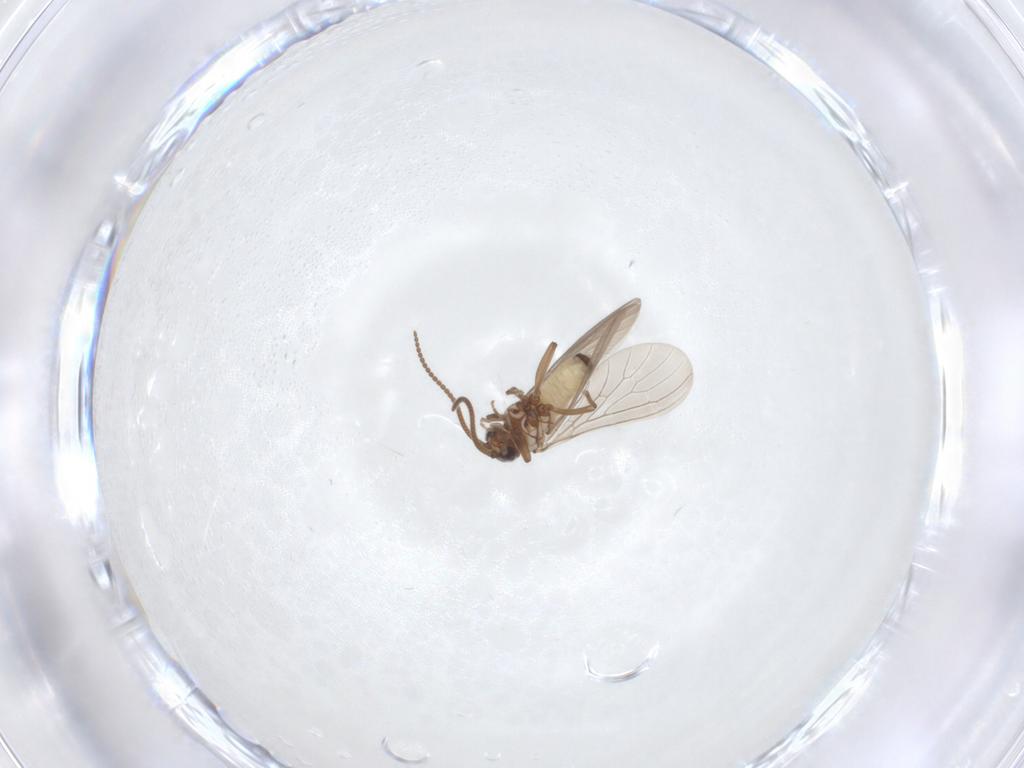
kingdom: Animalia
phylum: Arthropoda
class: Insecta
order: Neuroptera
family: Coniopterygidae
